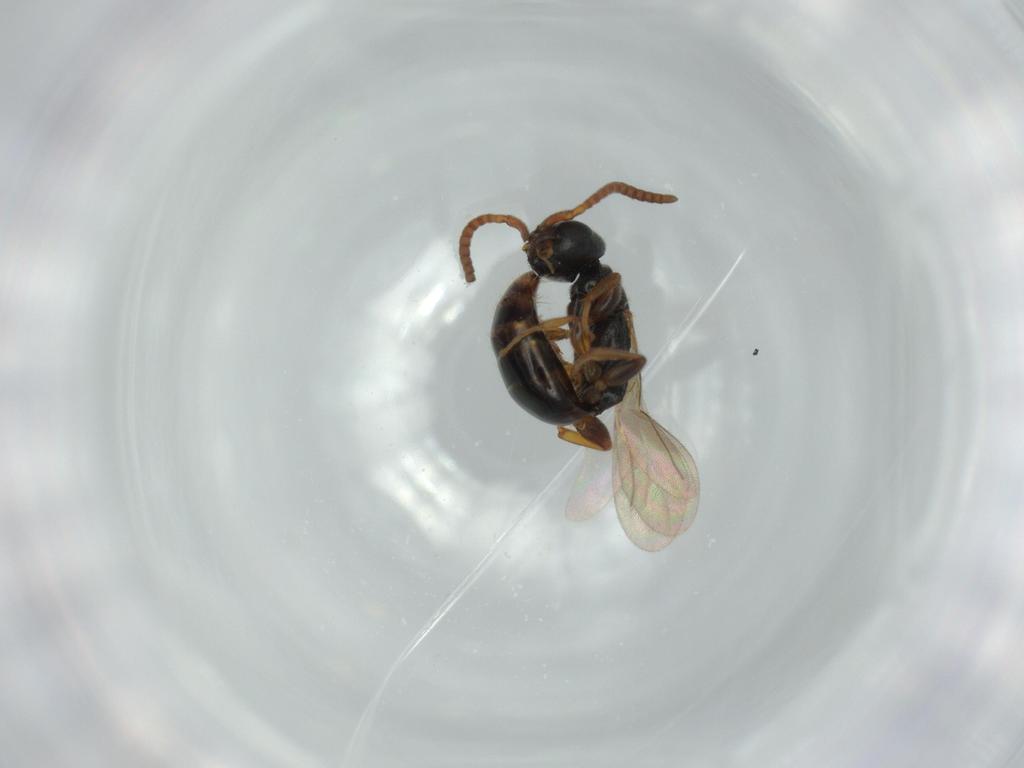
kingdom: Animalia
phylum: Arthropoda
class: Insecta
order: Hymenoptera
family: Bethylidae
